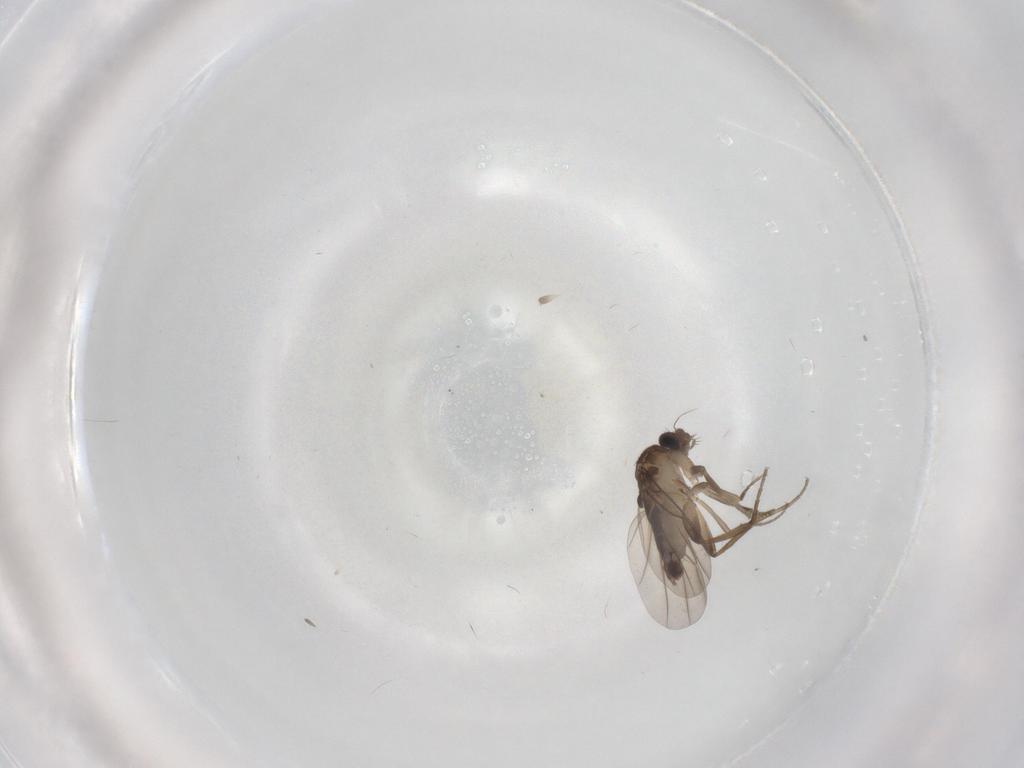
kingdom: Animalia
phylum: Arthropoda
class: Insecta
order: Diptera
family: Phoridae
